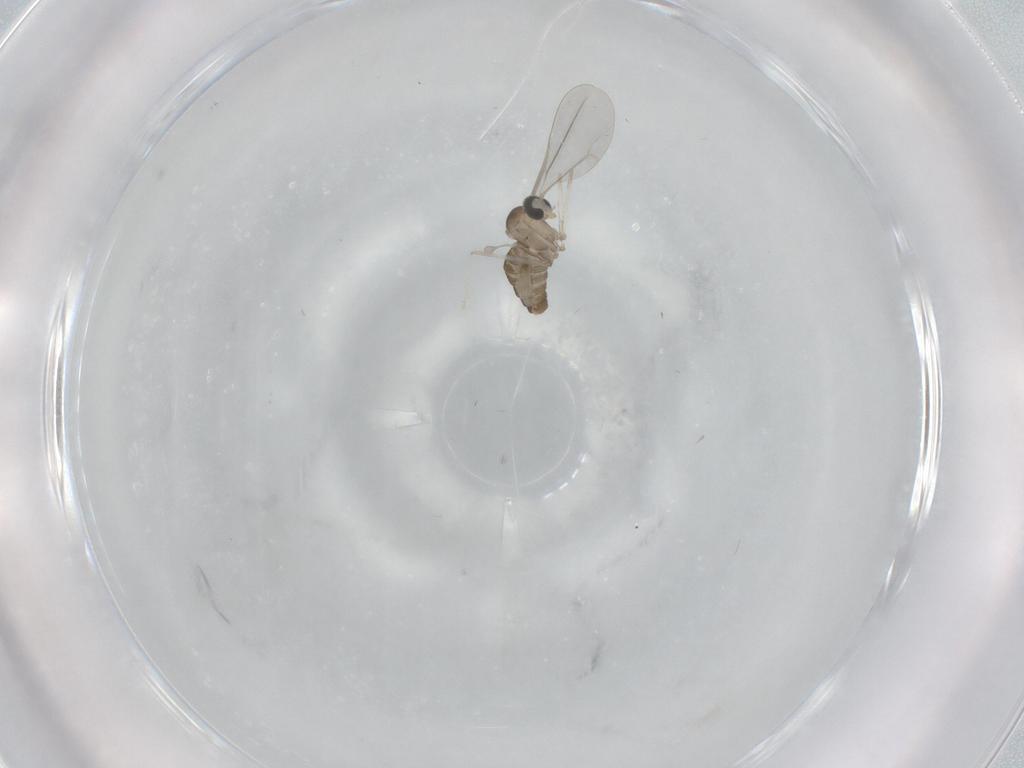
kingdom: Animalia
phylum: Arthropoda
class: Insecta
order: Diptera
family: Cecidomyiidae
